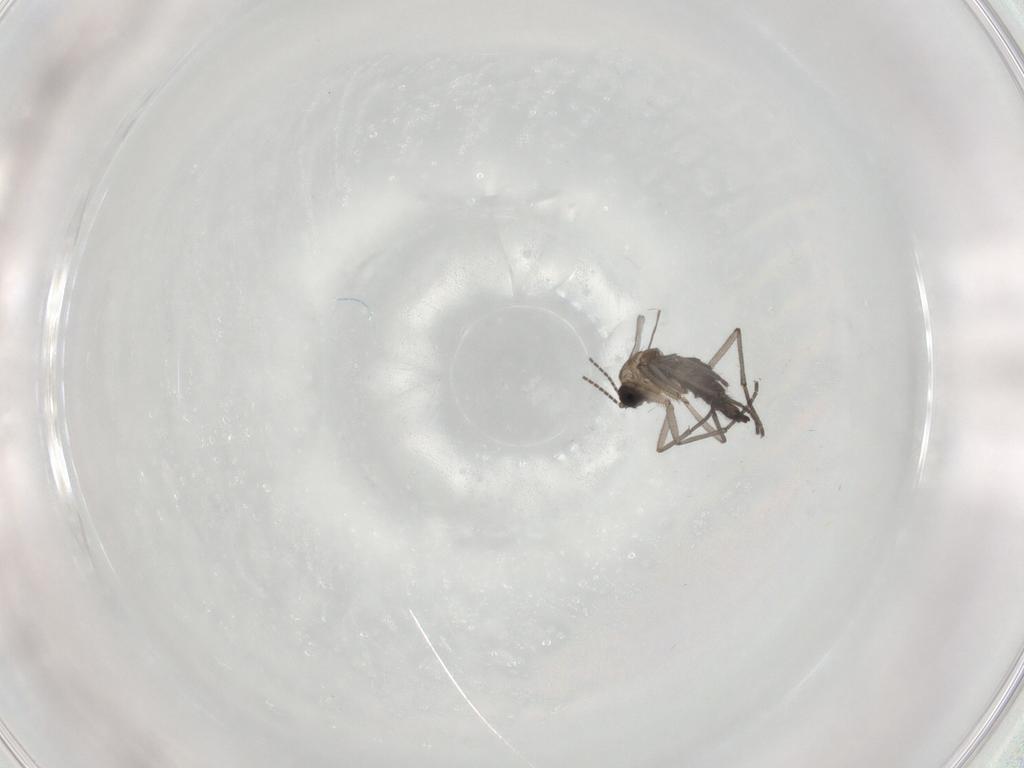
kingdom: Animalia
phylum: Arthropoda
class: Insecta
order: Diptera
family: Sciaridae
